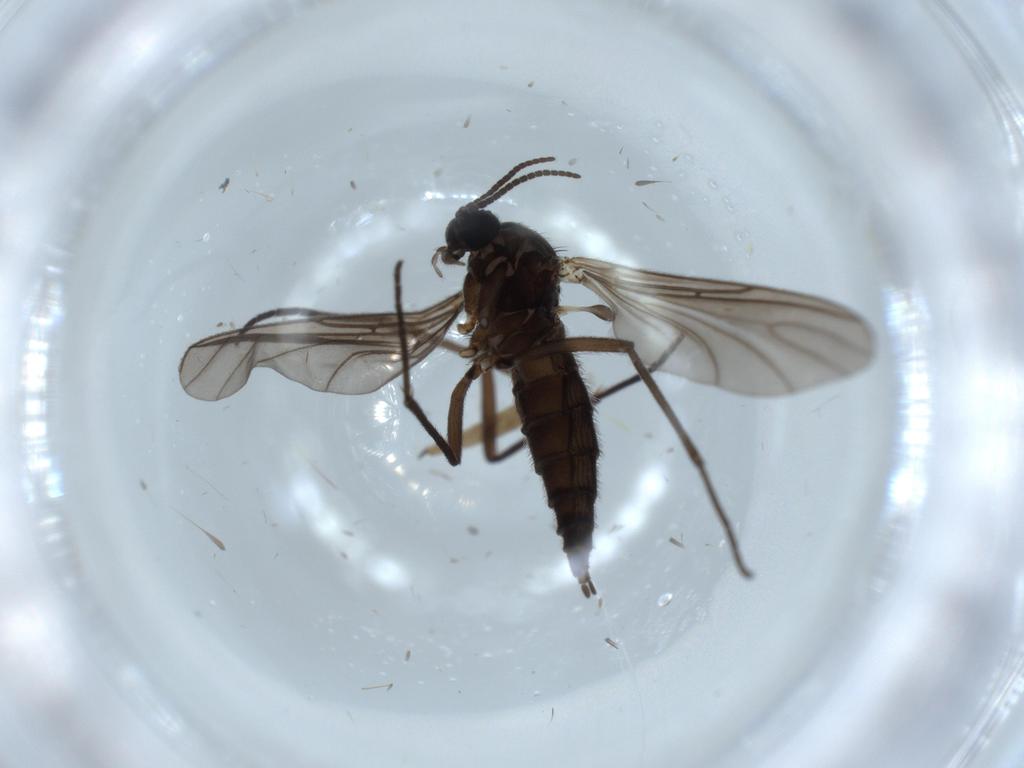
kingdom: Animalia
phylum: Arthropoda
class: Insecta
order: Diptera
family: Sciaridae
